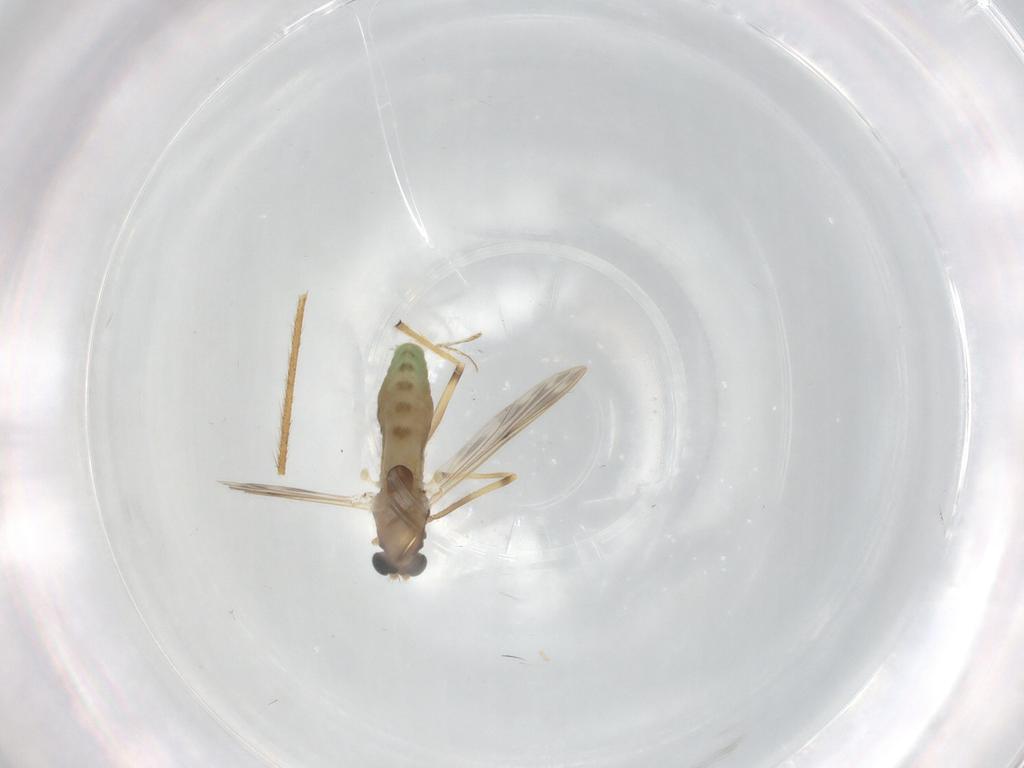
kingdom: Animalia
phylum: Arthropoda
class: Insecta
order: Diptera
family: Chironomidae
